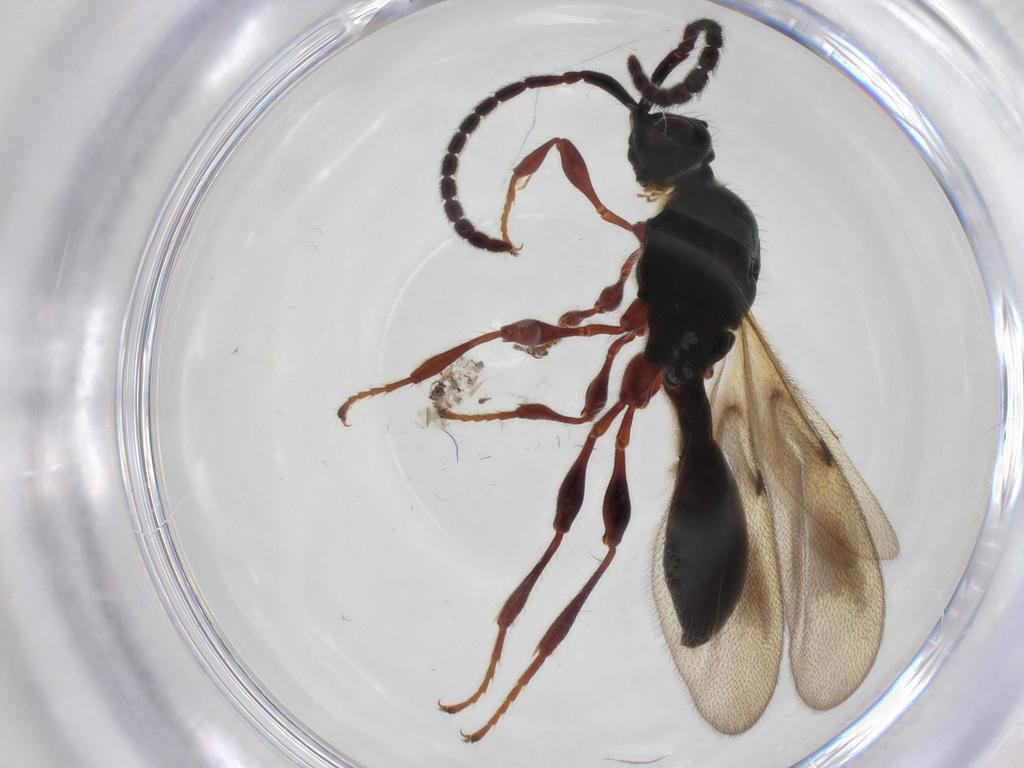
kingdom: Animalia
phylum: Arthropoda
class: Insecta
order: Hymenoptera
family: Diapriidae
